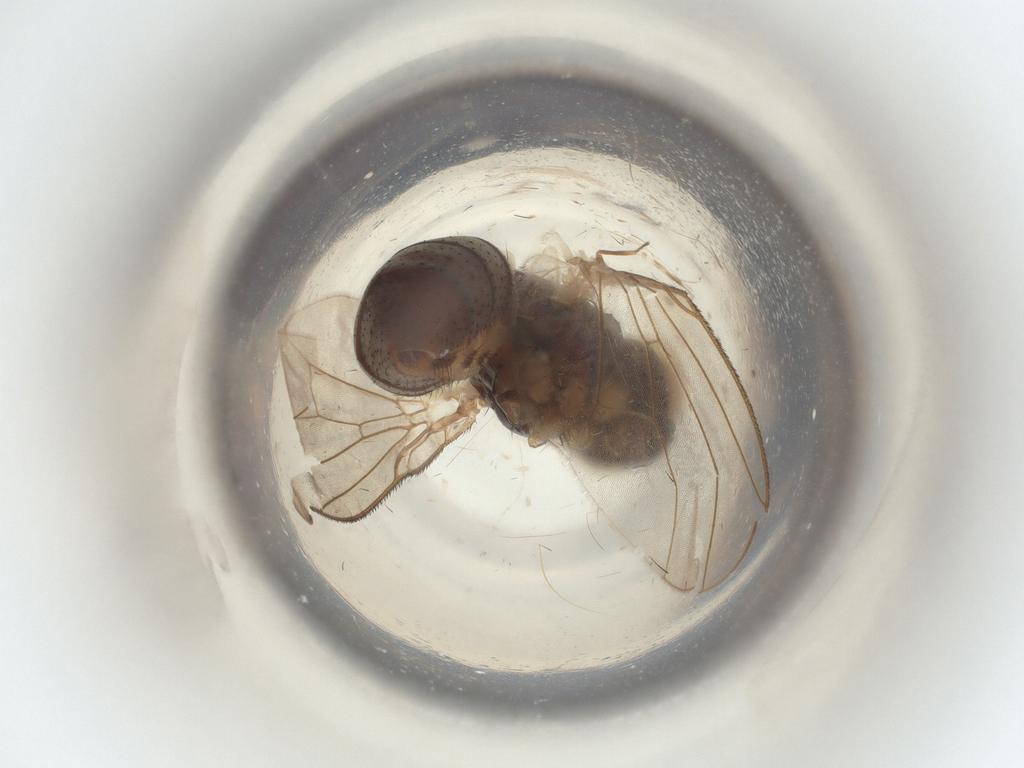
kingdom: Animalia
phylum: Arthropoda
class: Insecta
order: Diptera
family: Muscidae
